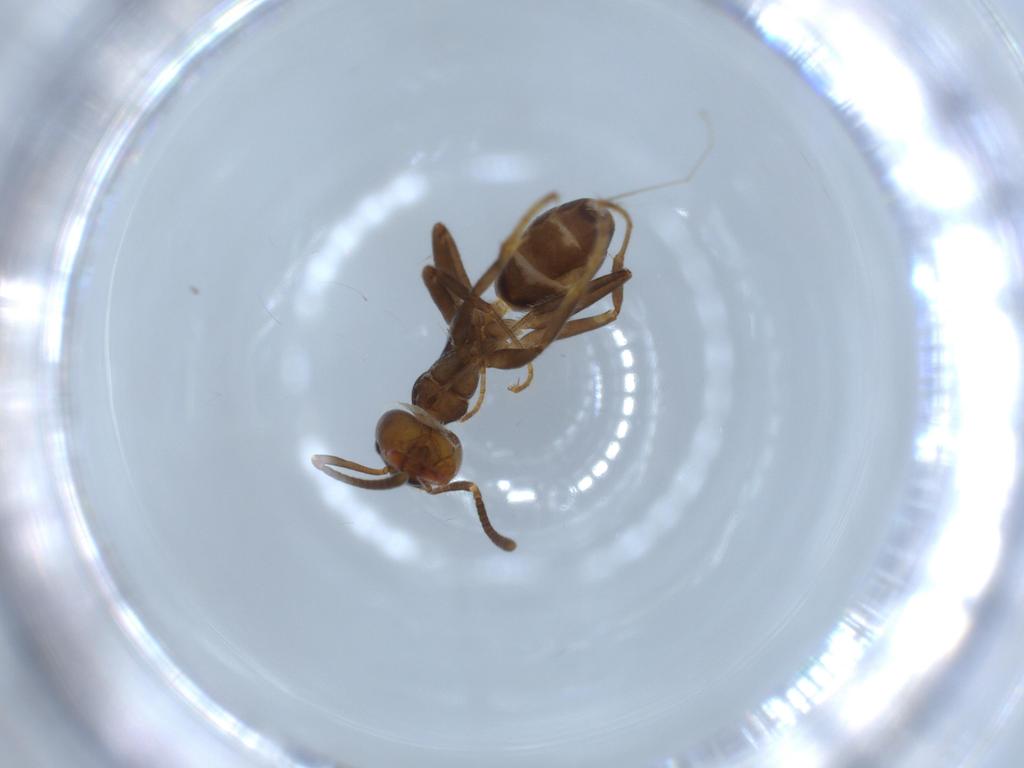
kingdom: Animalia
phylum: Arthropoda
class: Insecta
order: Hymenoptera
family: Formicidae
